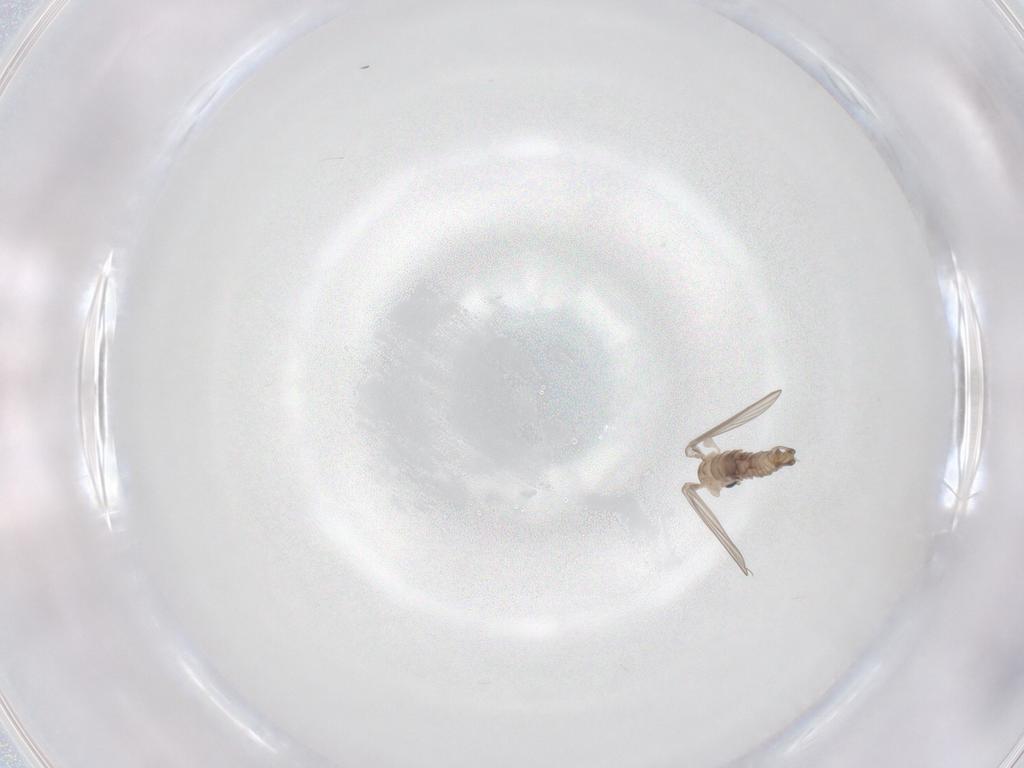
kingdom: Animalia
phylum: Arthropoda
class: Insecta
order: Diptera
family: Psychodidae
